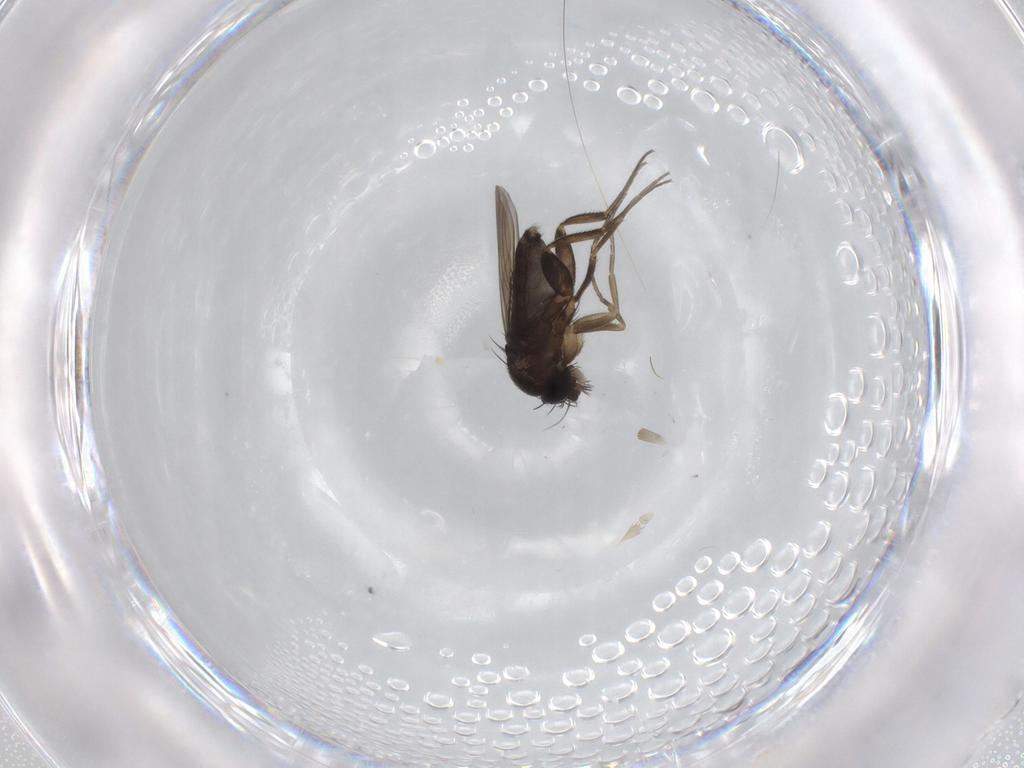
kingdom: Animalia
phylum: Arthropoda
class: Insecta
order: Diptera
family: Phoridae
